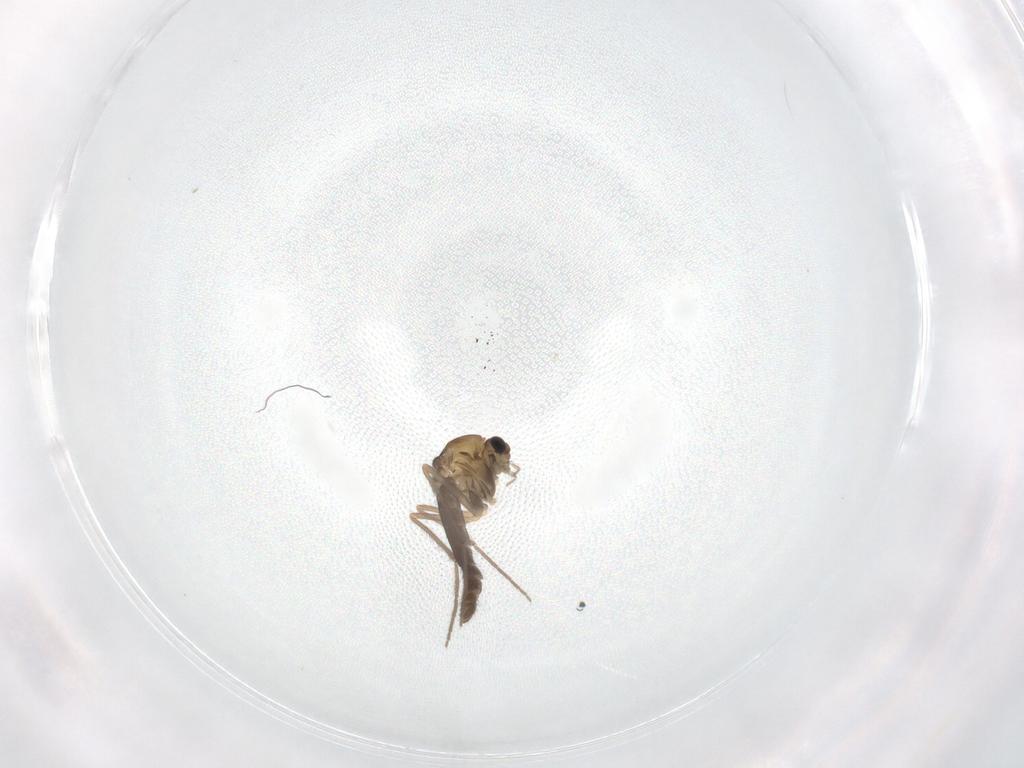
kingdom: Animalia
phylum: Arthropoda
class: Insecta
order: Diptera
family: Chironomidae
